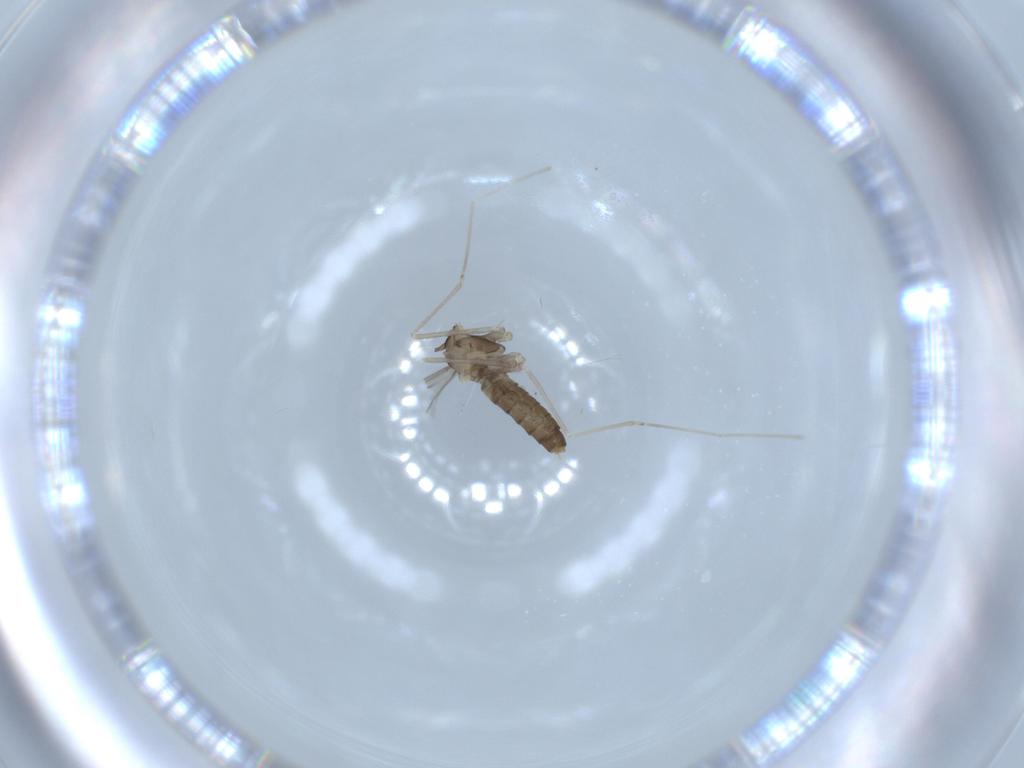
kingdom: Animalia
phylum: Arthropoda
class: Insecta
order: Diptera
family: Cecidomyiidae
